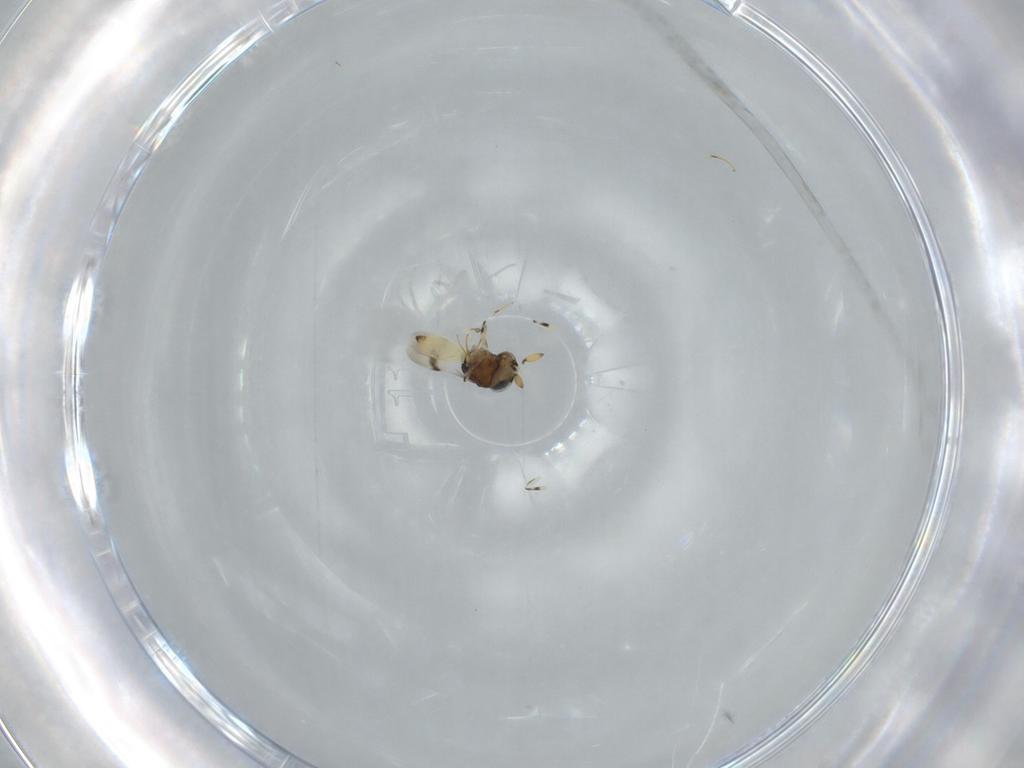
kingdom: Animalia
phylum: Arthropoda
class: Insecta
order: Hymenoptera
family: Scelionidae
